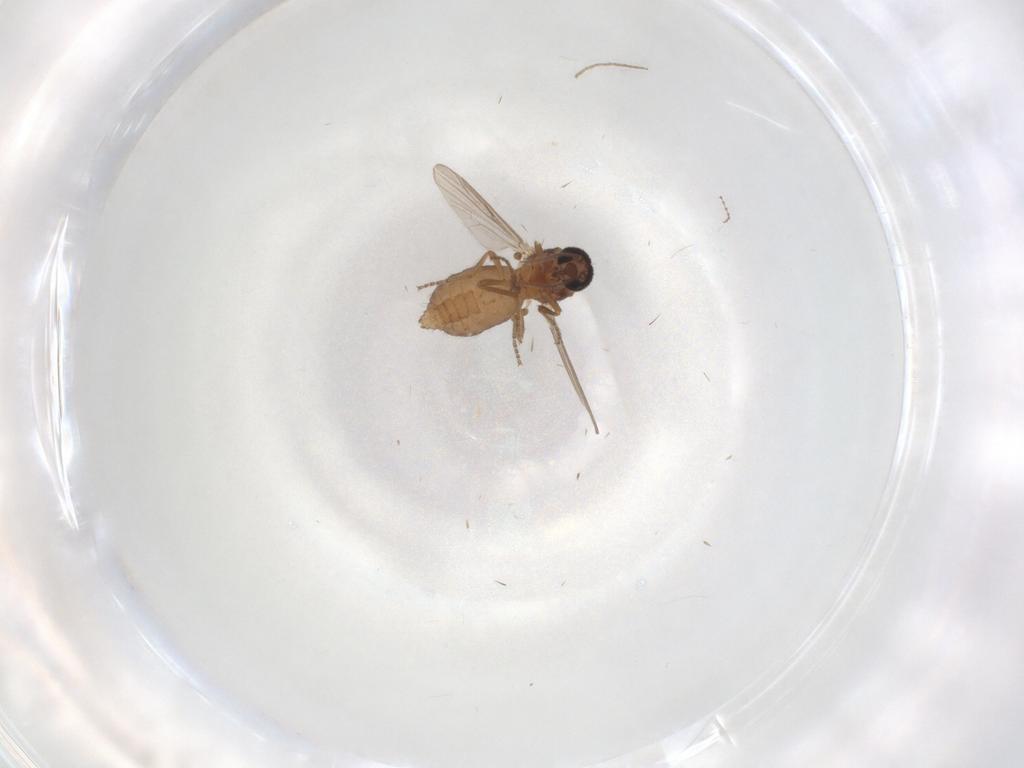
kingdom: Animalia
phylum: Arthropoda
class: Insecta
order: Diptera
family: Ceratopogonidae
